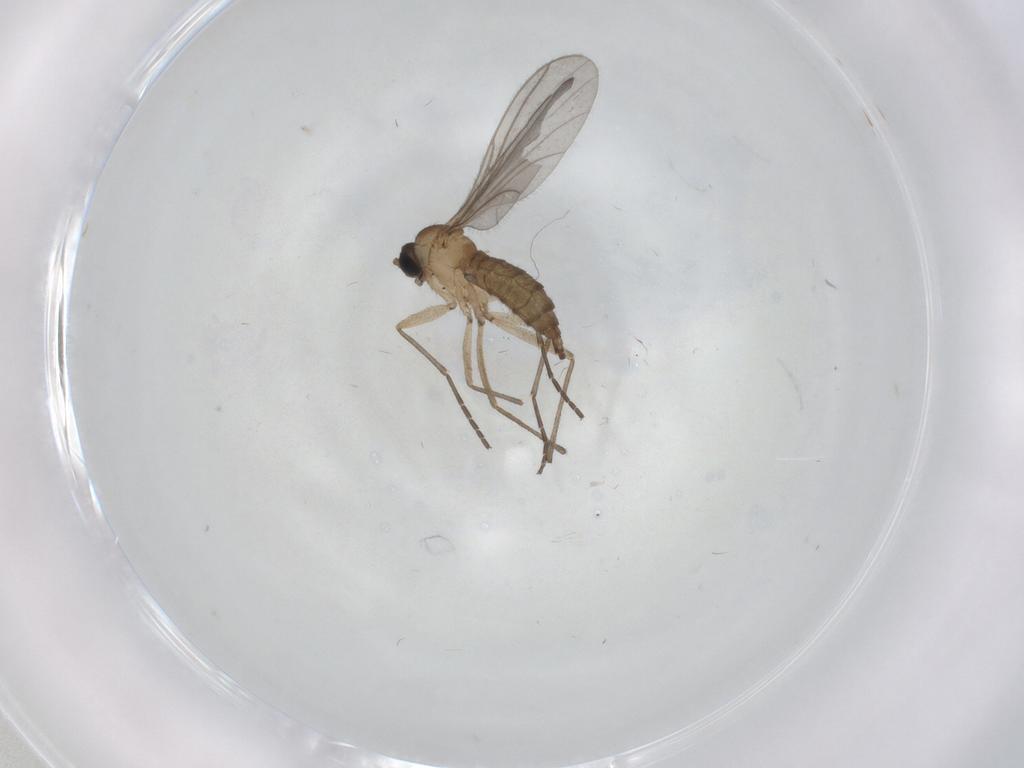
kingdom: Animalia
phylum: Arthropoda
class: Insecta
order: Diptera
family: Sciaridae
